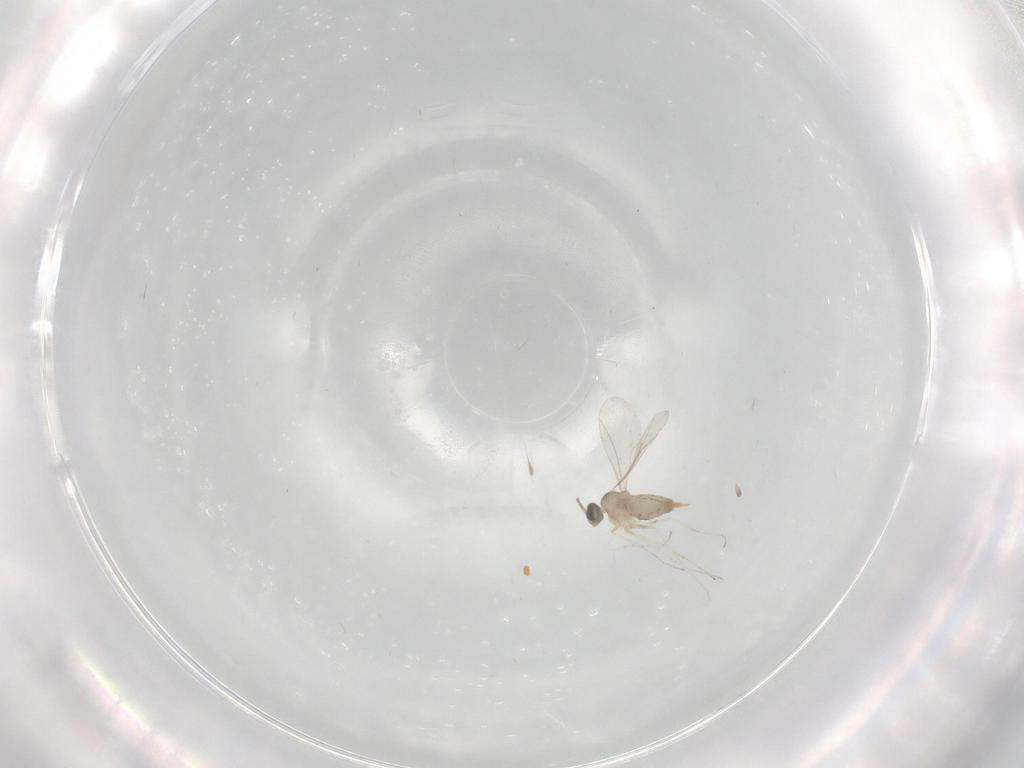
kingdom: Animalia
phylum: Arthropoda
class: Insecta
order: Diptera
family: Cecidomyiidae
